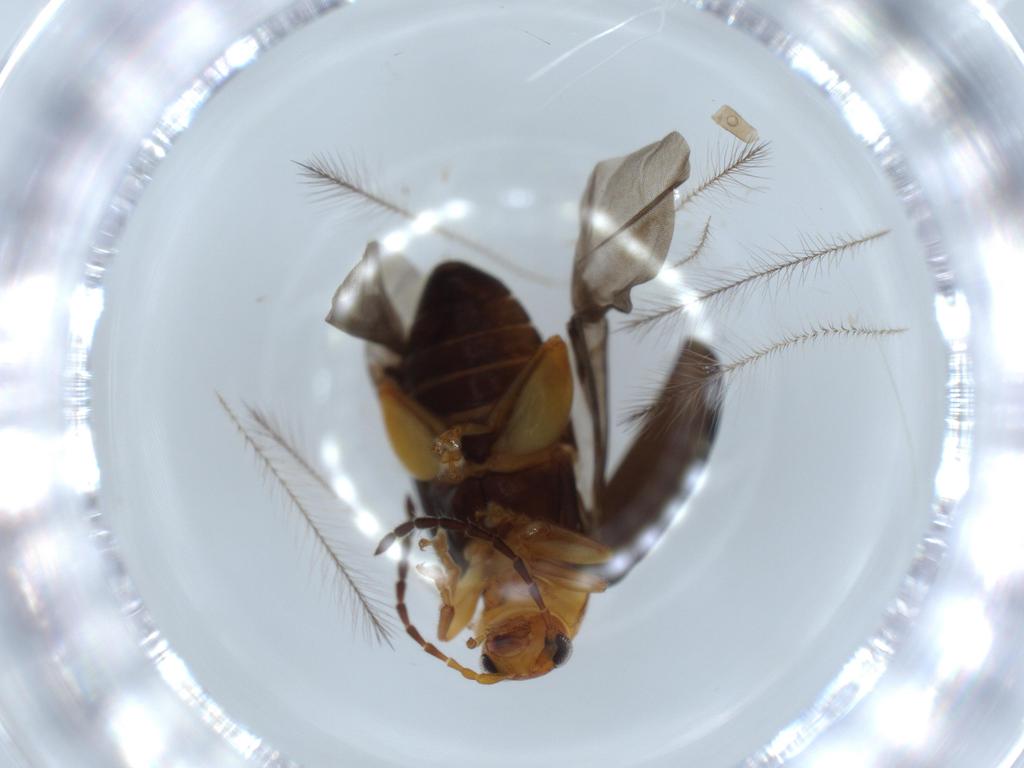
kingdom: Animalia
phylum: Arthropoda
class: Insecta
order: Coleoptera
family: Chrysomelidae
